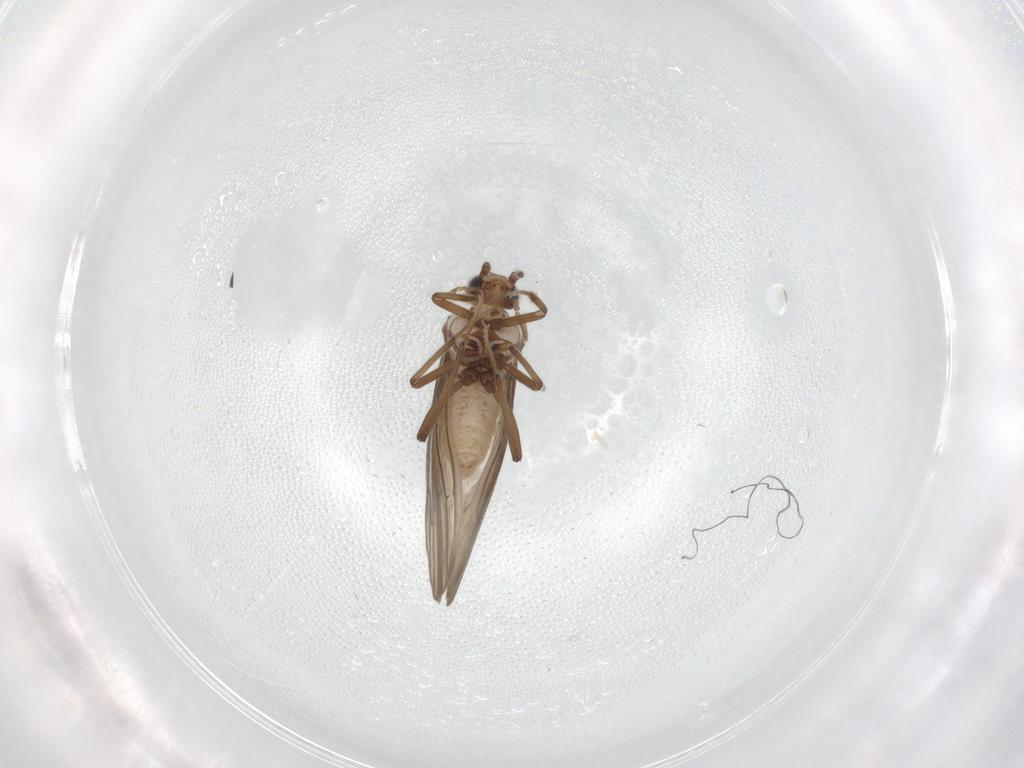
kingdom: Animalia
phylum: Arthropoda
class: Insecta
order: Neuroptera
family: Coniopterygidae
